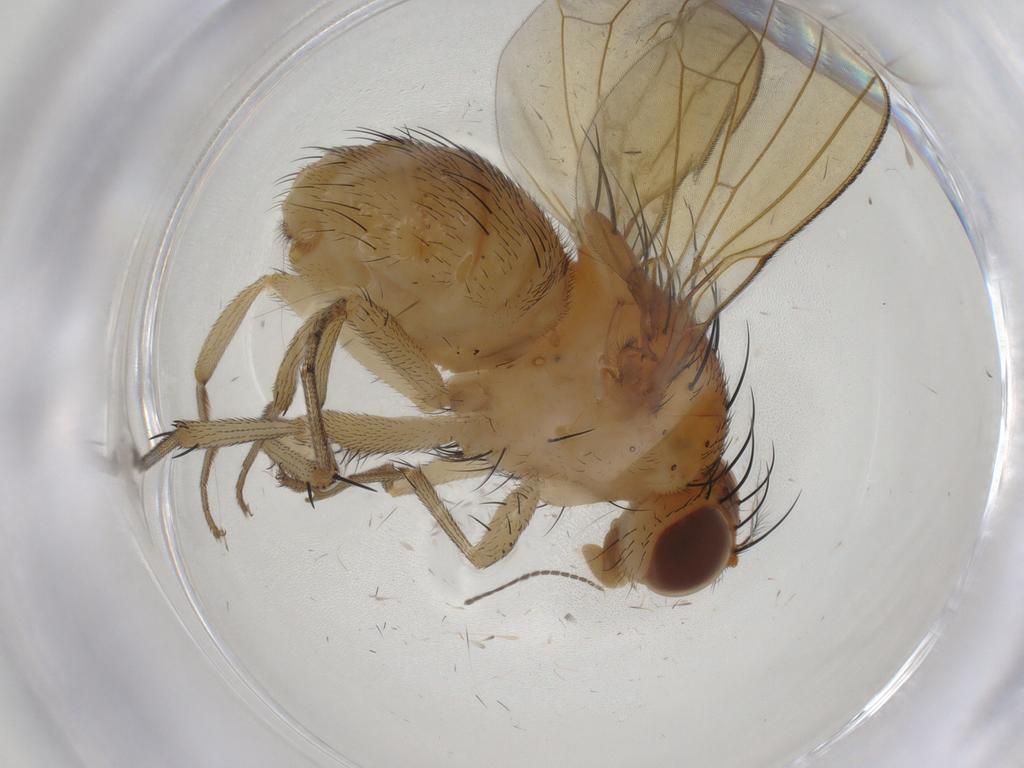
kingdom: Animalia
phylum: Arthropoda
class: Insecta
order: Diptera
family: Sciaridae
